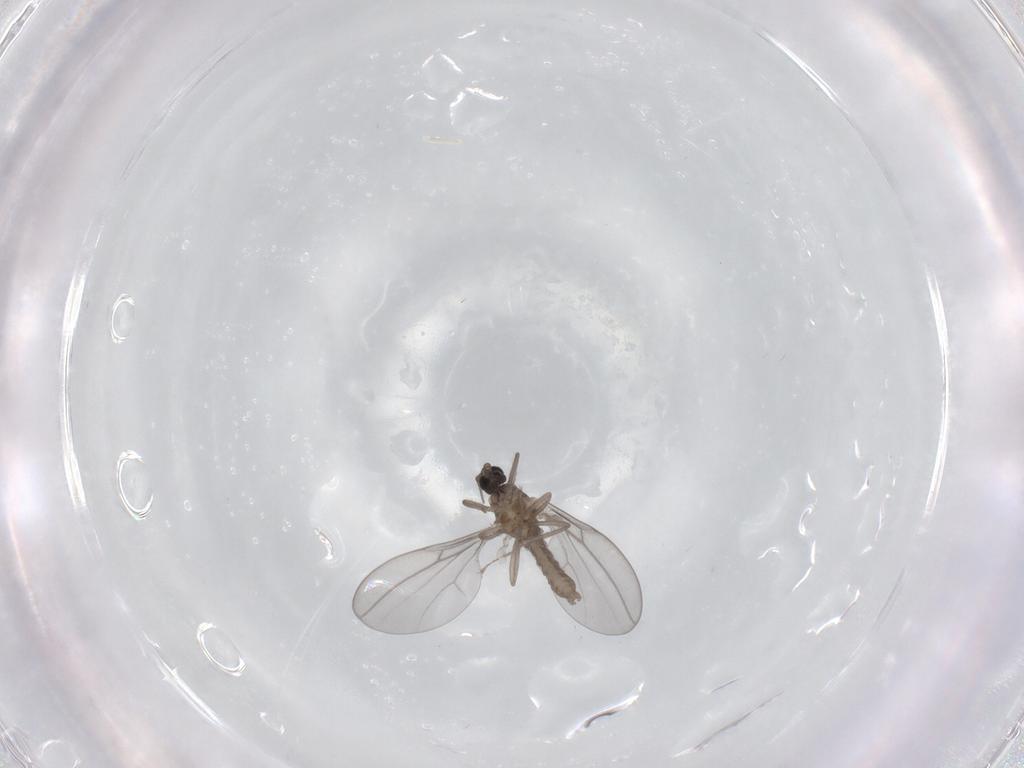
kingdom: Animalia
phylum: Arthropoda
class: Insecta
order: Diptera
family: Cecidomyiidae
